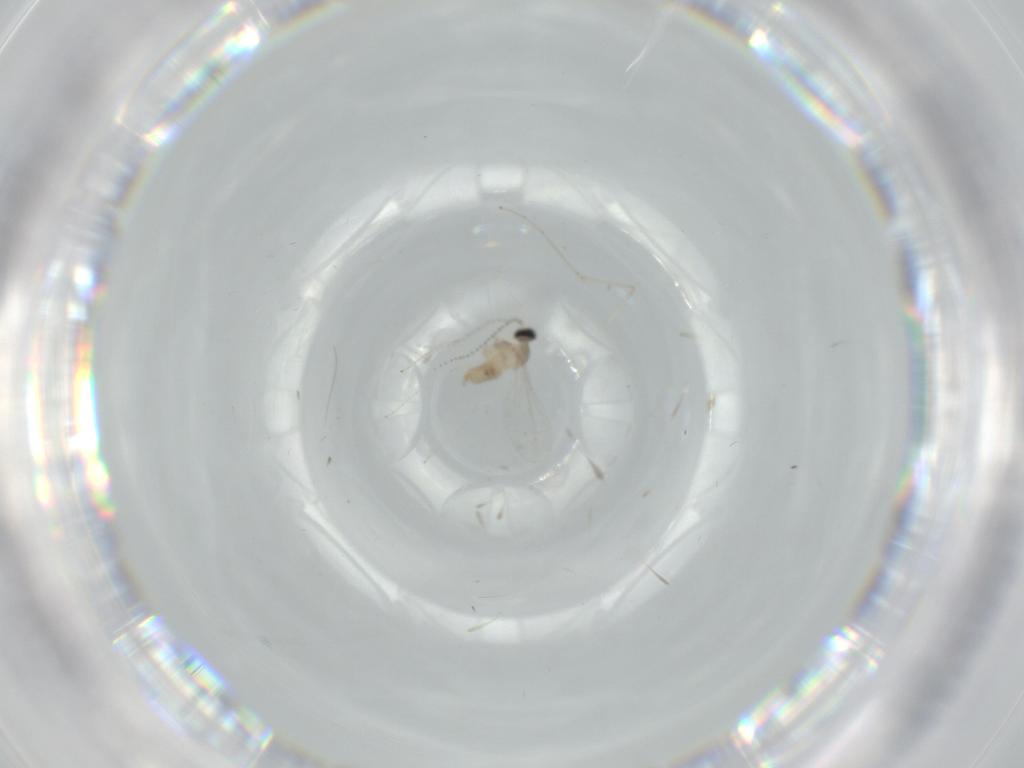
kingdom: Animalia
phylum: Arthropoda
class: Insecta
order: Diptera
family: Cecidomyiidae
